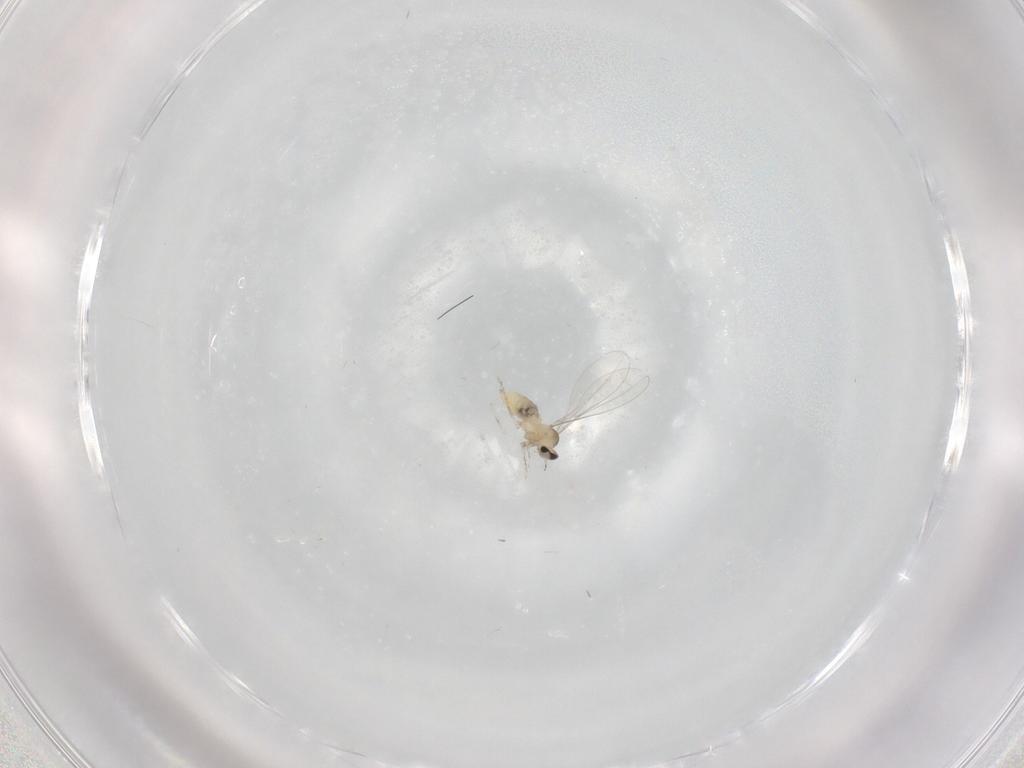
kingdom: Animalia
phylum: Arthropoda
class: Insecta
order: Diptera
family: Cecidomyiidae
